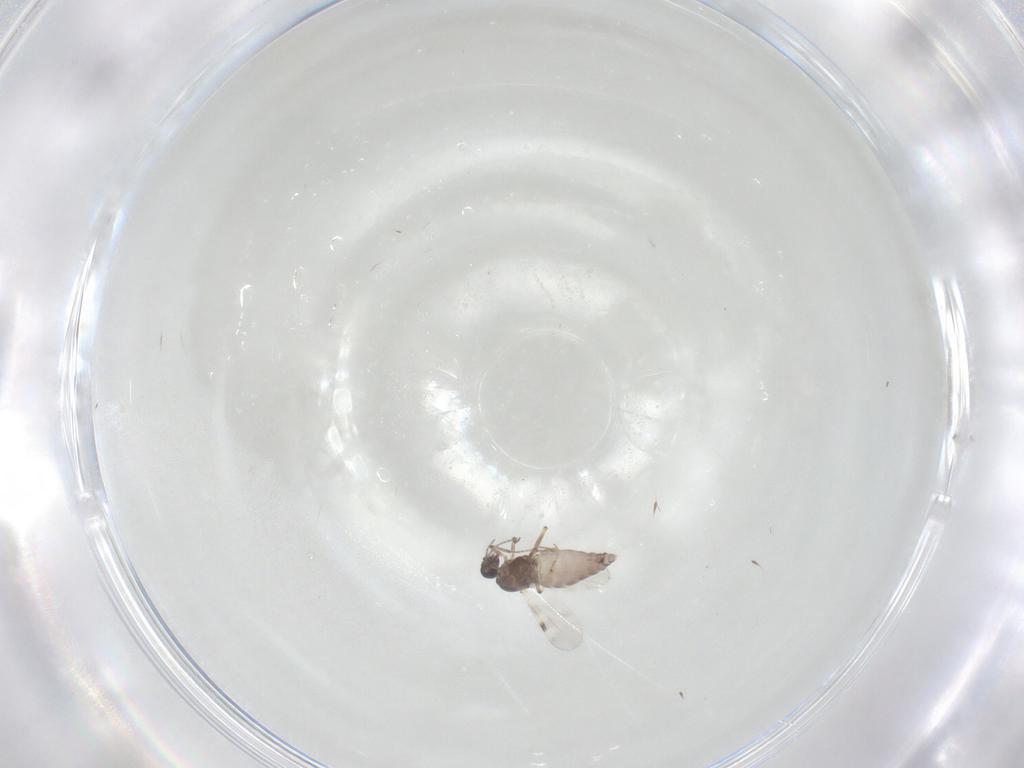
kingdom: Animalia
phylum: Arthropoda
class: Insecta
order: Diptera
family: Cecidomyiidae
